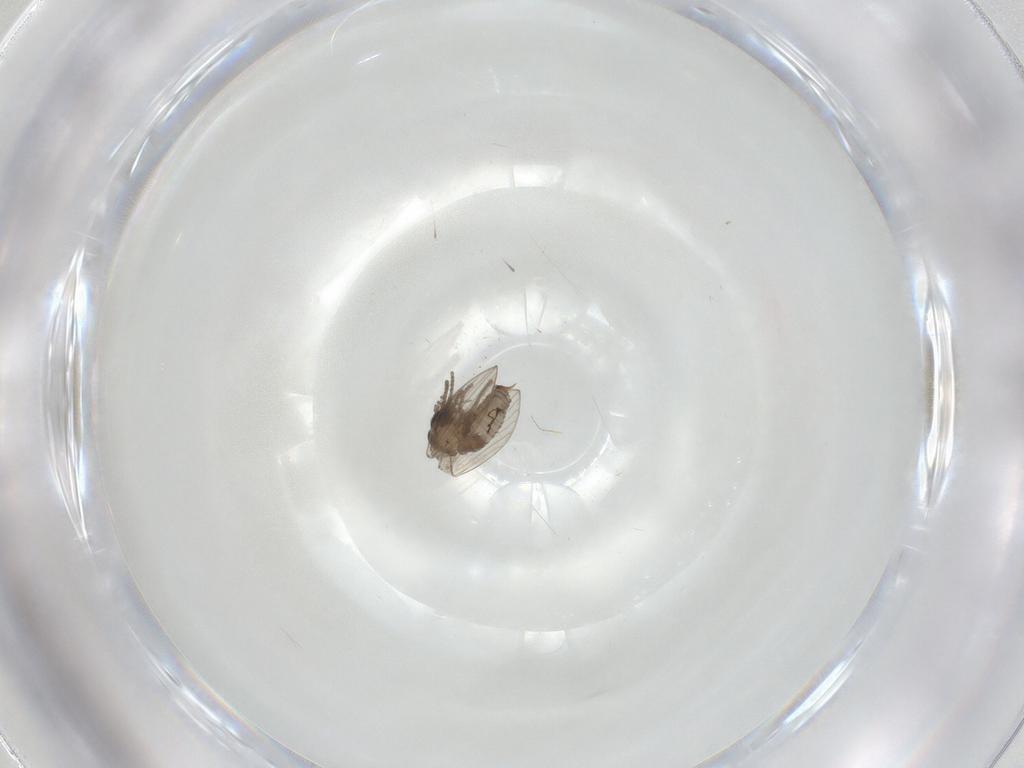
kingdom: Animalia
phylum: Arthropoda
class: Insecta
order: Diptera
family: Psychodidae
